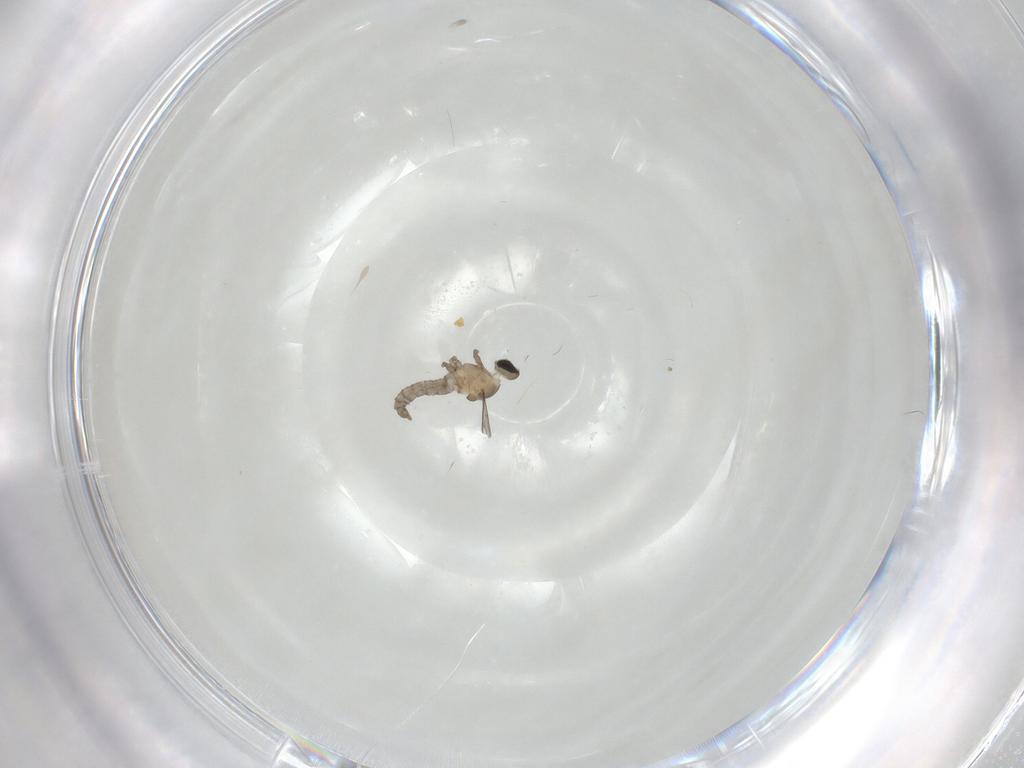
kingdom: Animalia
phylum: Arthropoda
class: Insecta
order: Diptera
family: Cecidomyiidae
